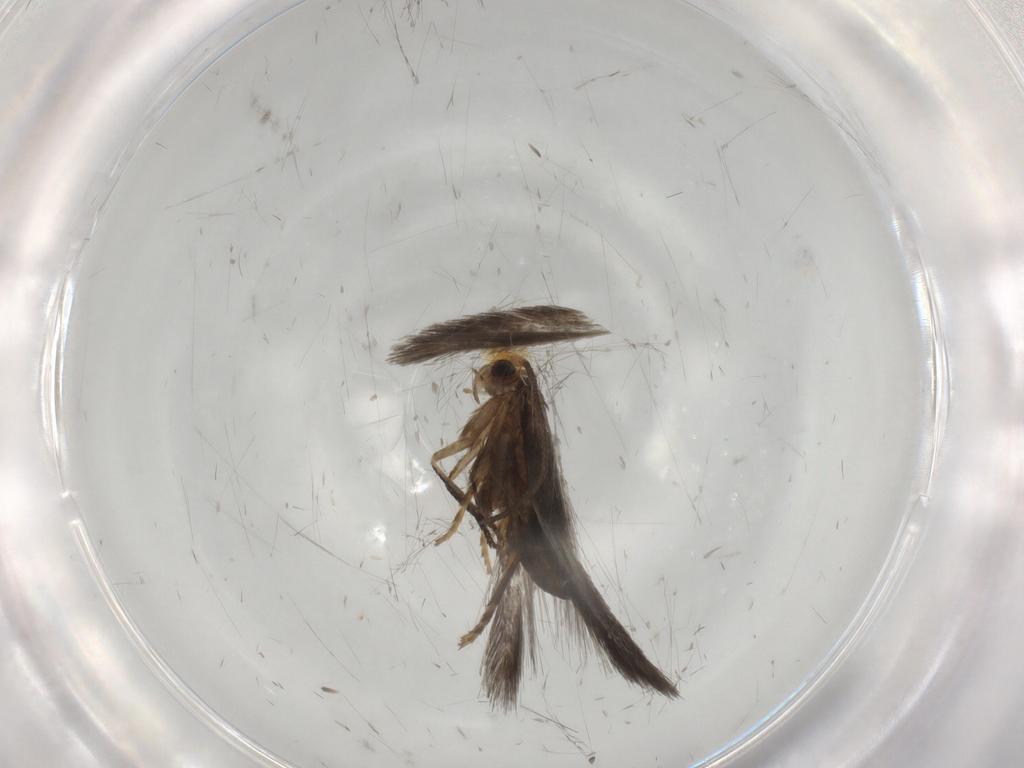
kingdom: Animalia
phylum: Arthropoda
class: Insecta
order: Lepidoptera
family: Nepticulidae
